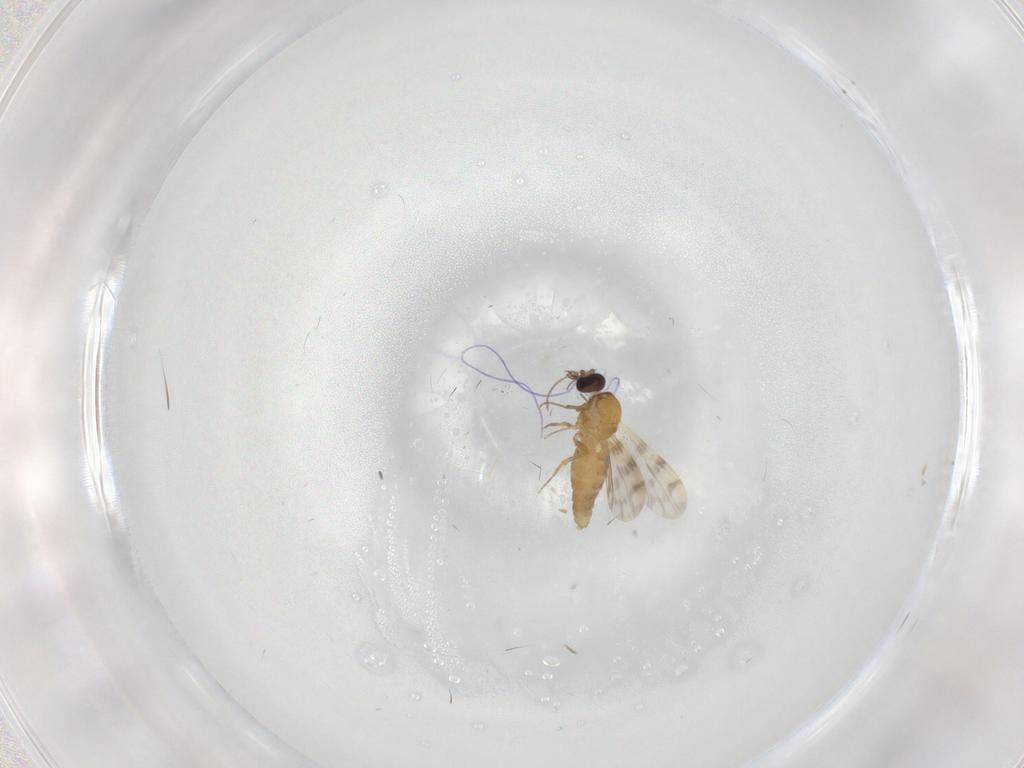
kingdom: Animalia
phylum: Arthropoda
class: Insecta
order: Diptera
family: Ceratopogonidae
